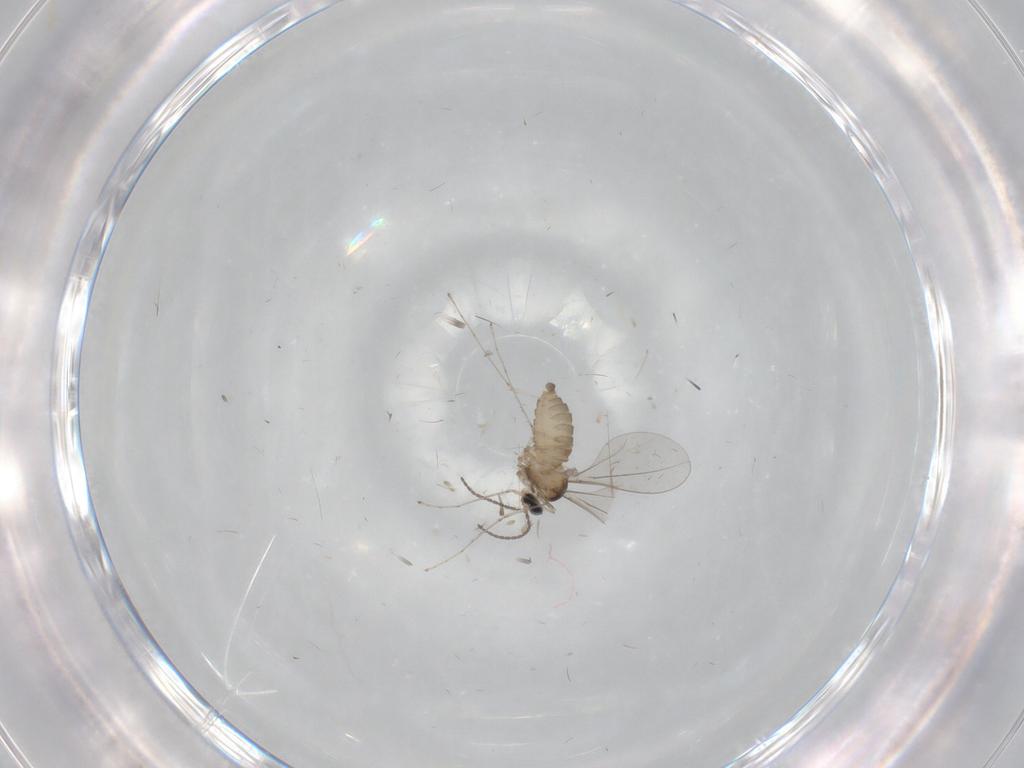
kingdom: Animalia
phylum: Arthropoda
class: Insecta
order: Diptera
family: Cecidomyiidae
